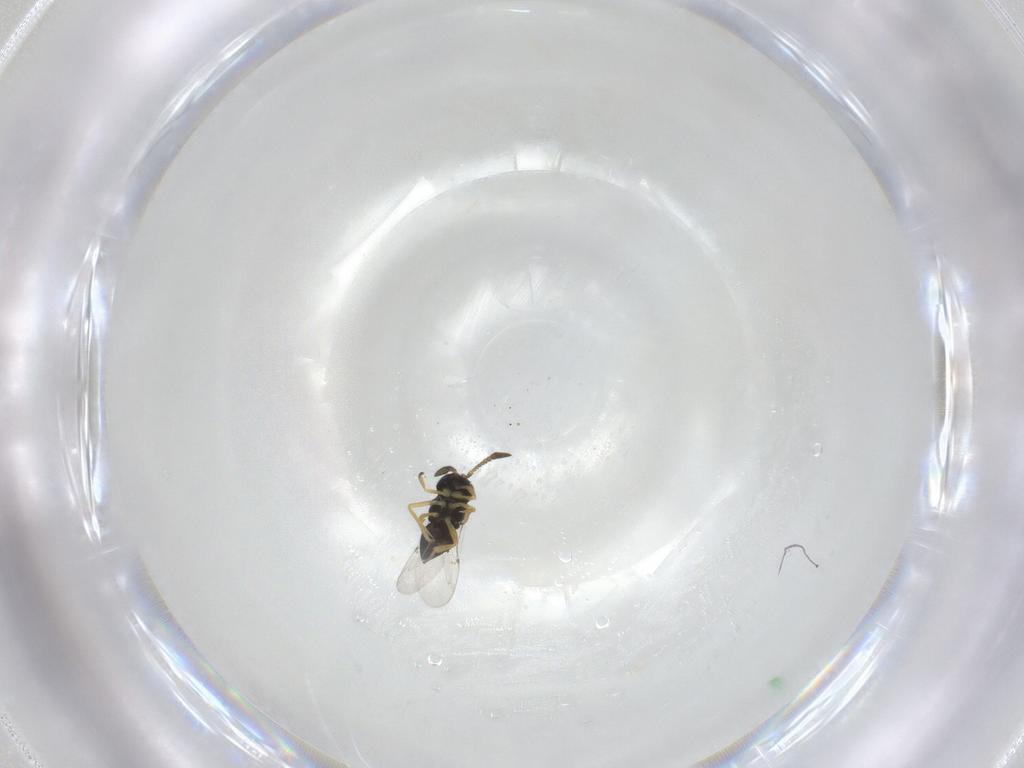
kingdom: Animalia
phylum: Arthropoda
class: Insecta
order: Hymenoptera
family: Encyrtidae
